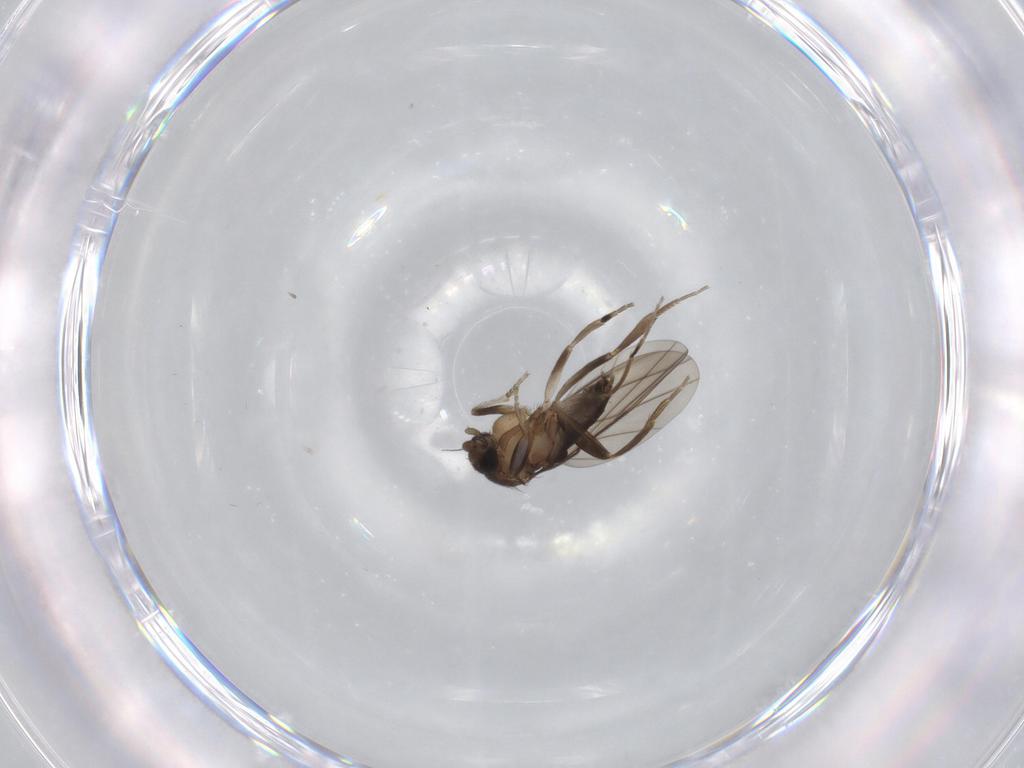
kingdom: Animalia
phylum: Arthropoda
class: Insecta
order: Diptera
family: Phoridae
